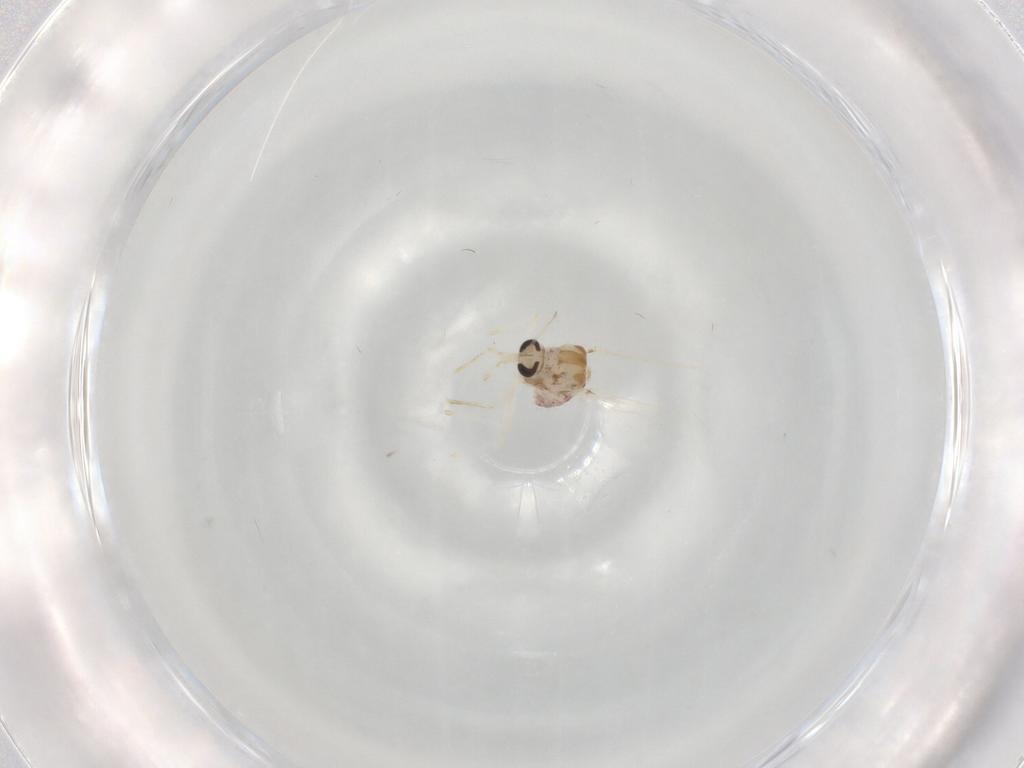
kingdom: Animalia
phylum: Arthropoda
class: Insecta
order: Diptera
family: Chironomidae
